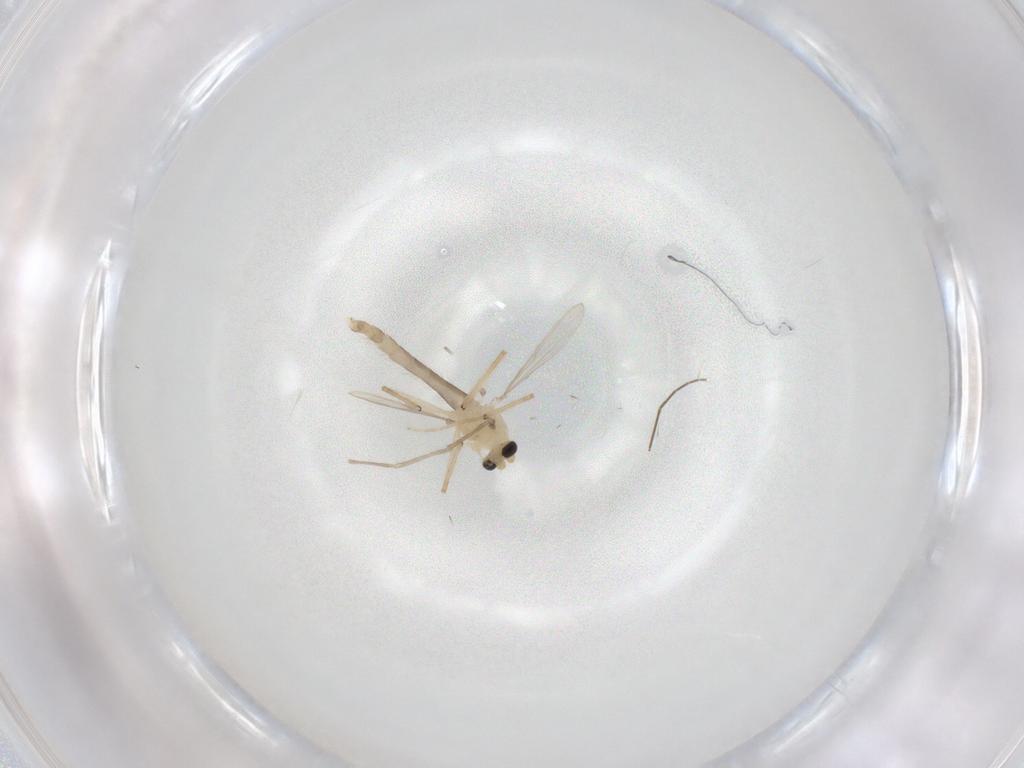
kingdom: Animalia
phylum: Arthropoda
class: Insecta
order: Diptera
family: Chironomidae
